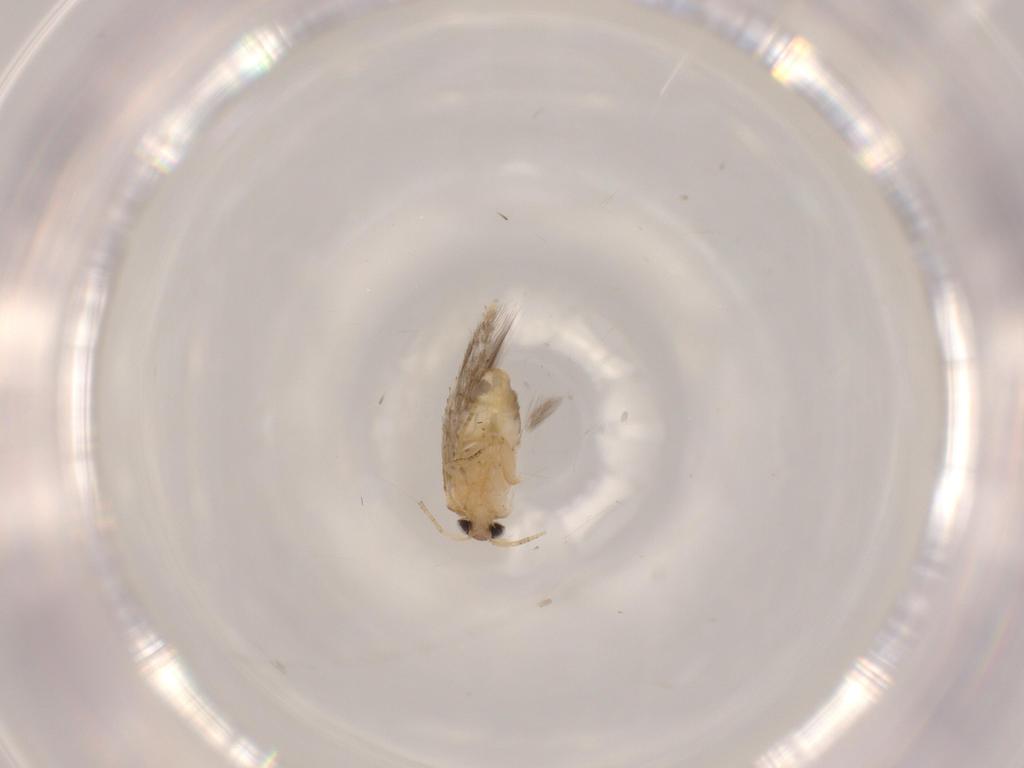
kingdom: Animalia
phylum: Arthropoda
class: Insecta
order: Lepidoptera
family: Nepticulidae
